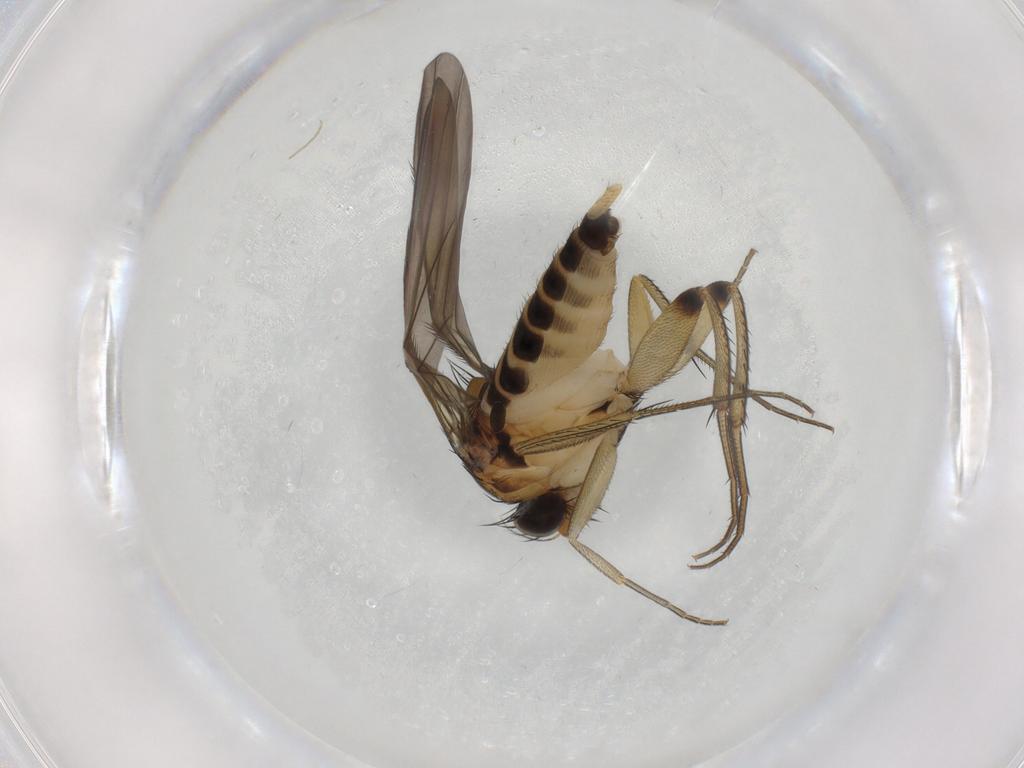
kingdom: Animalia
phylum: Arthropoda
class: Insecta
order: Diptera
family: Phoridae
